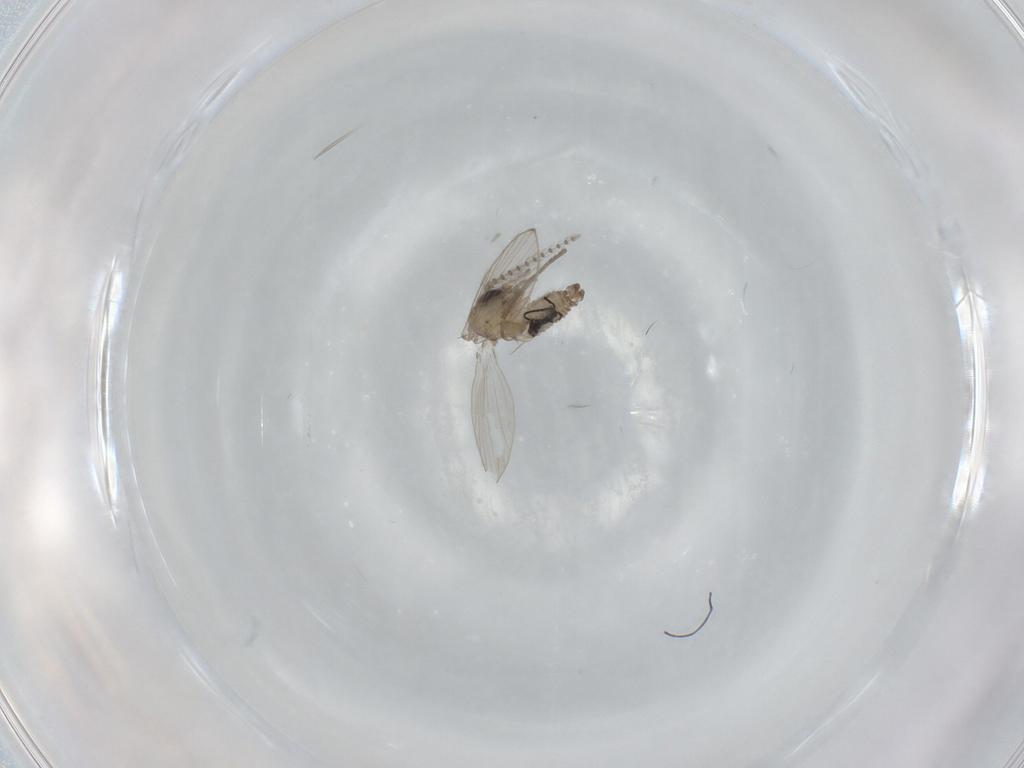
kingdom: Animalia
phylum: Arthropoda
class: Insecta
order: Diptera
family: Psychodidae
